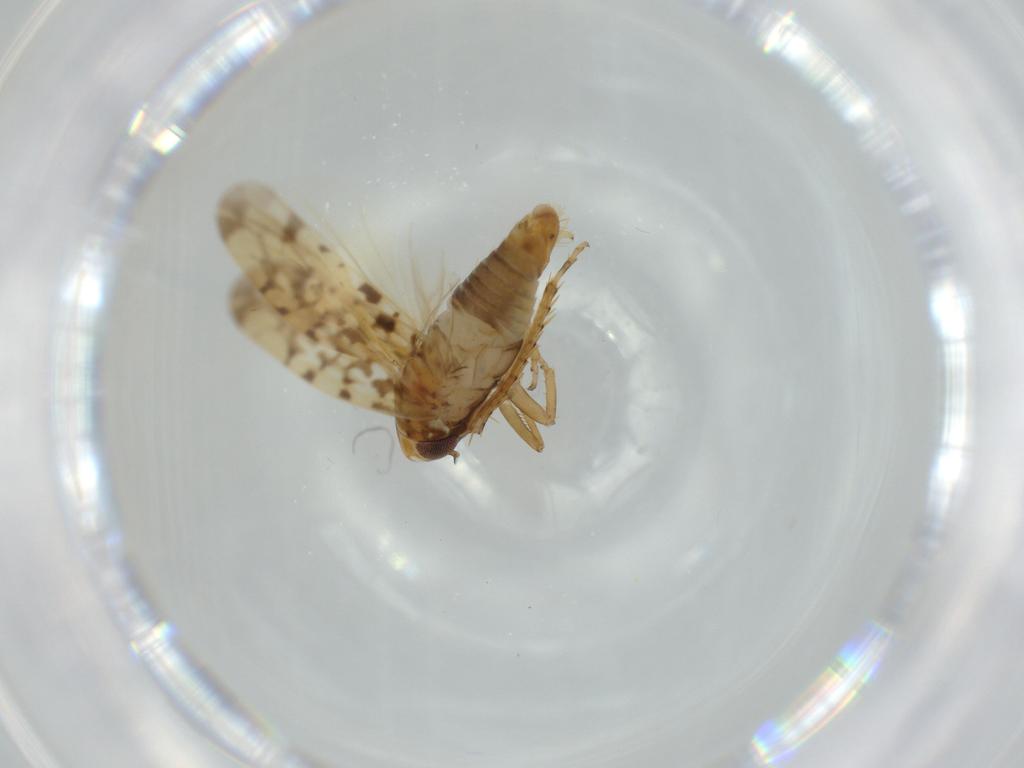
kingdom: Animalia
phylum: Arthropoda
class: Insecta
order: Hemiptera
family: Cicadellidae
